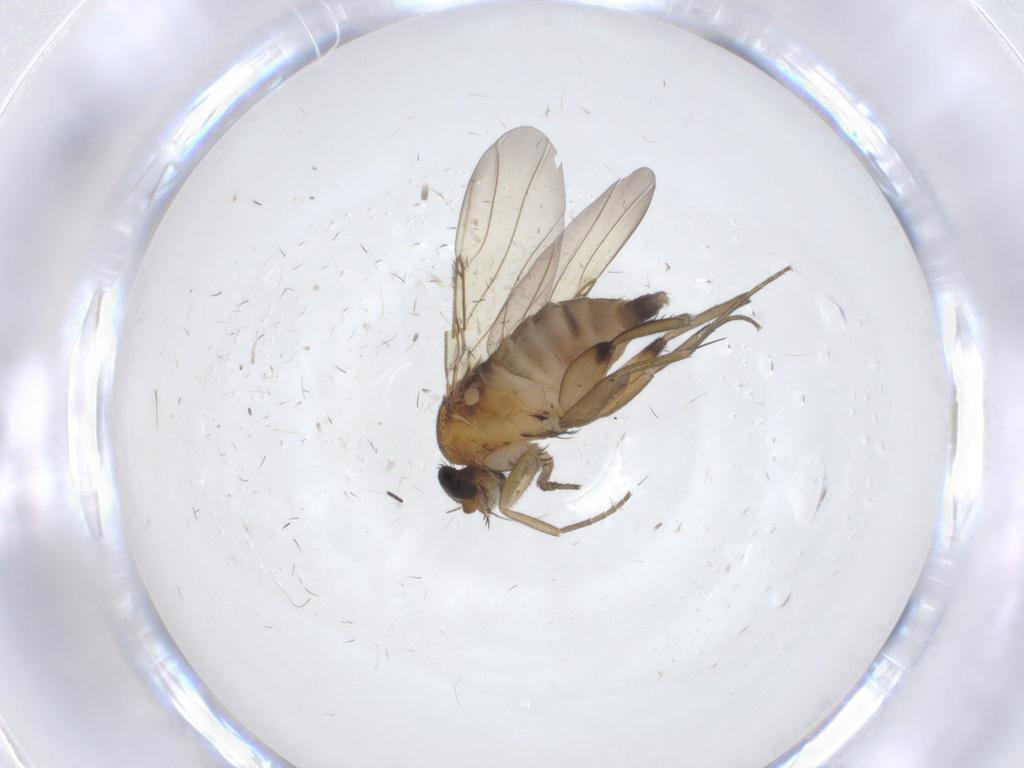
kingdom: Animalia
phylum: Arthropoda
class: Insecta
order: Diptera
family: Phoridae
